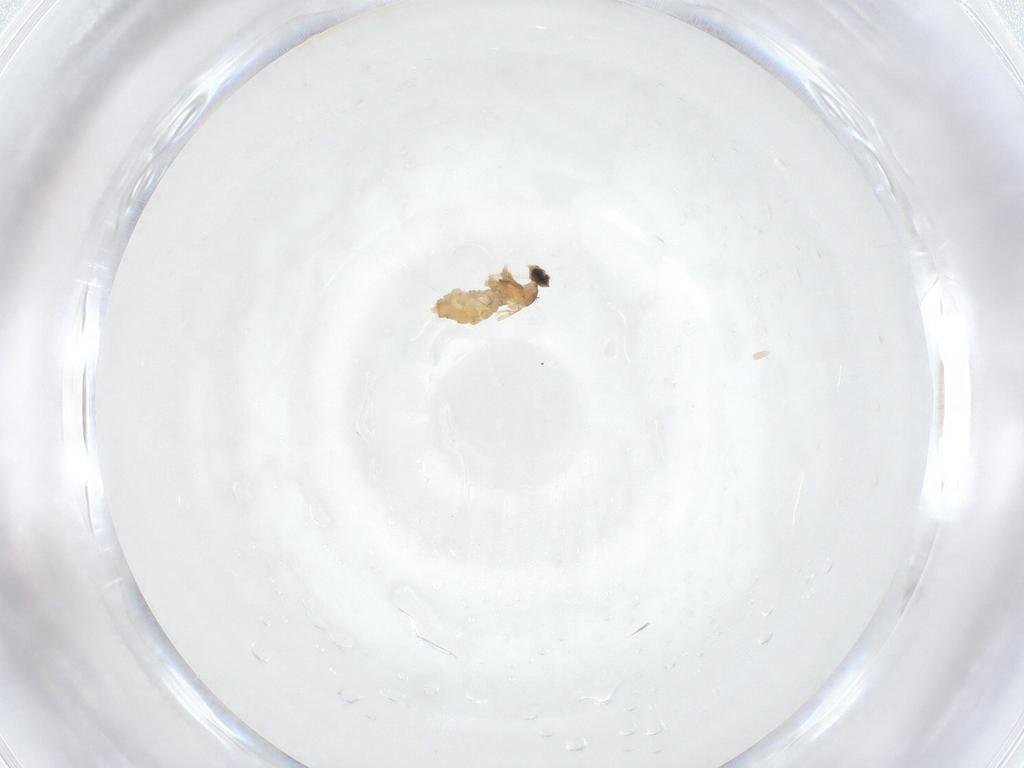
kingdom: Animalia
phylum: Arthropoda
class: Insecta
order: Diptera
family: Cecidomyiidae
